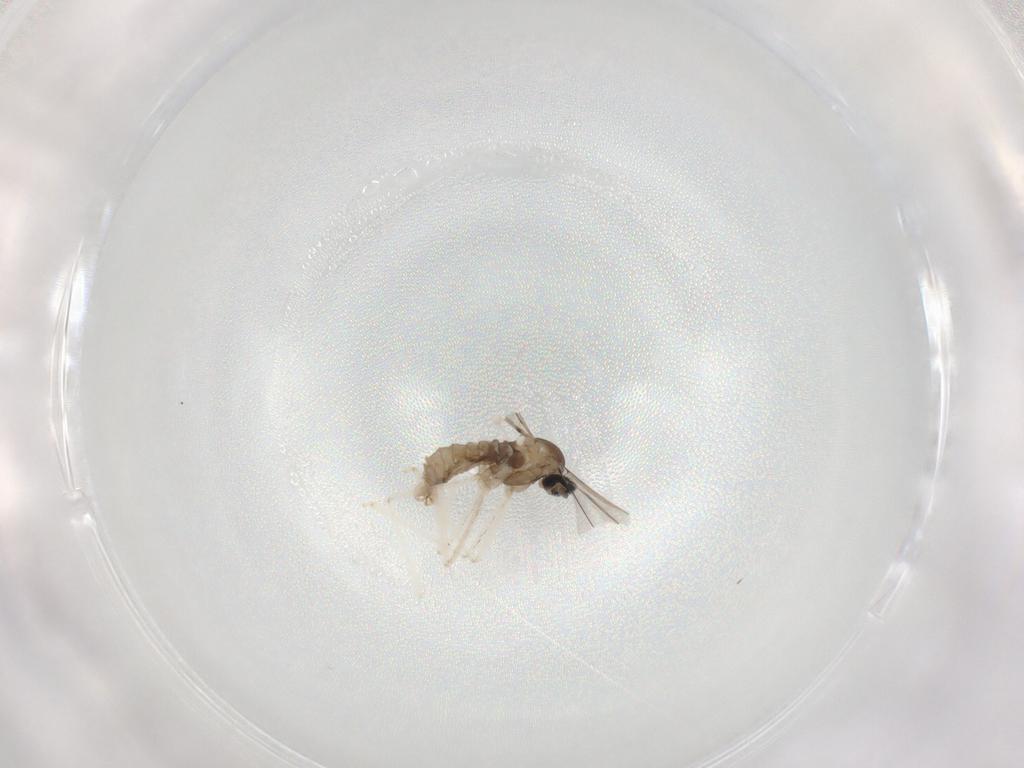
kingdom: Animalia
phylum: Arthropoda
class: Insecta
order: Diptera
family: Cecidomyiidae
